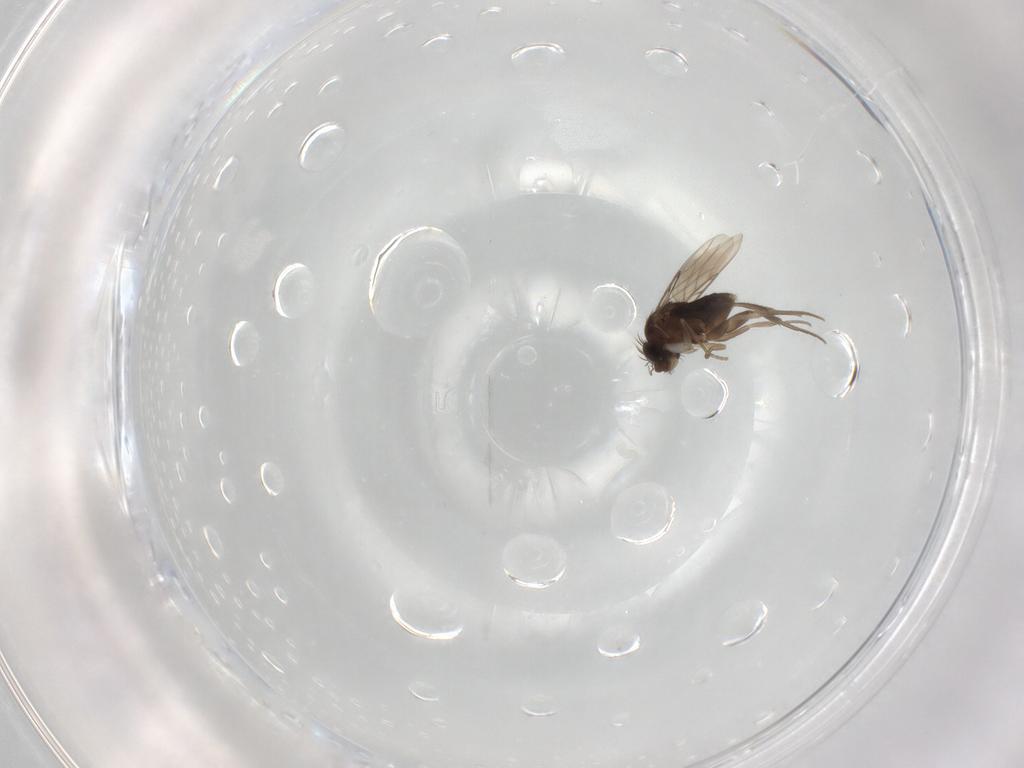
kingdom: Animalia
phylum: Arthropoda
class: Insecta
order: Diptera
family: Phoridae
